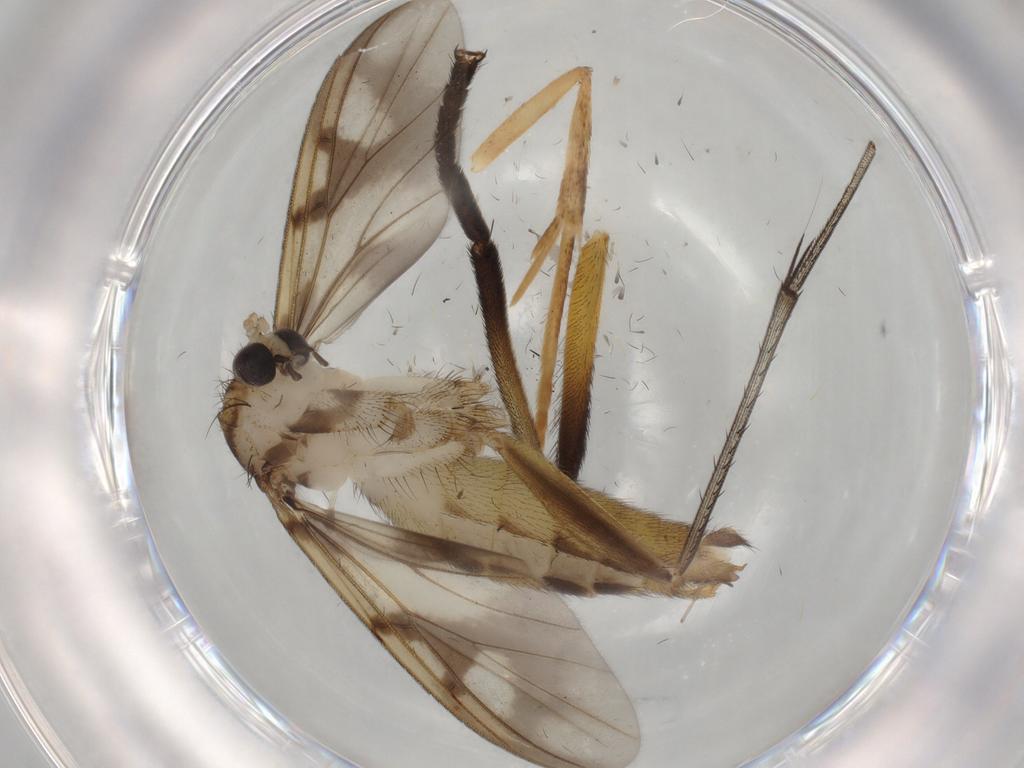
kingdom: Animalia
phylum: Arthropoda
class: Insecta
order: Diptera
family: Mycetophilidae
